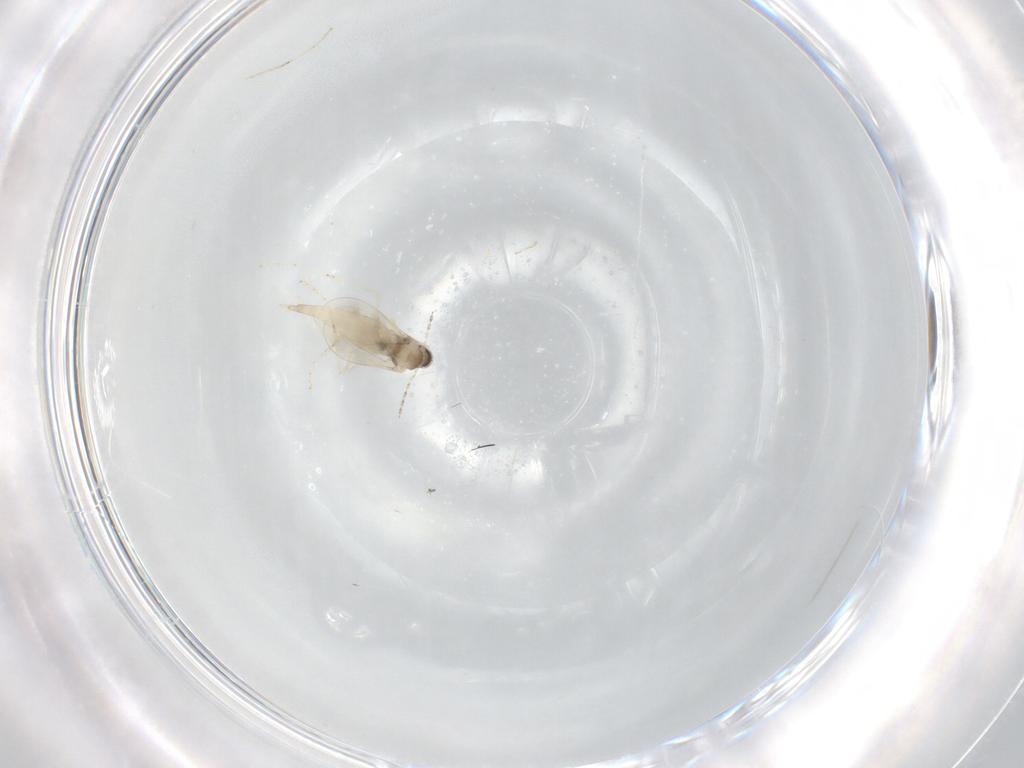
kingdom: Animalia
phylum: Arthropoda
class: Insecta
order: Diptera
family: Cecidomyiidae
